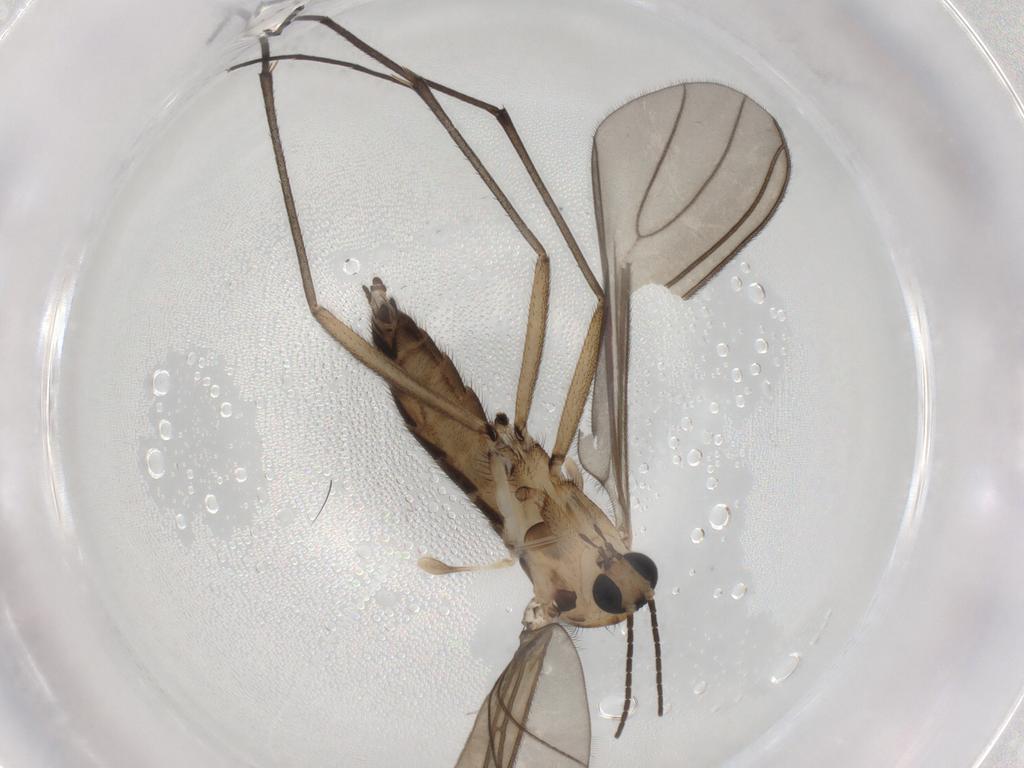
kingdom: Animalia
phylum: Arthropoda
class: Insecta
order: Diptera
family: Sciaridae
